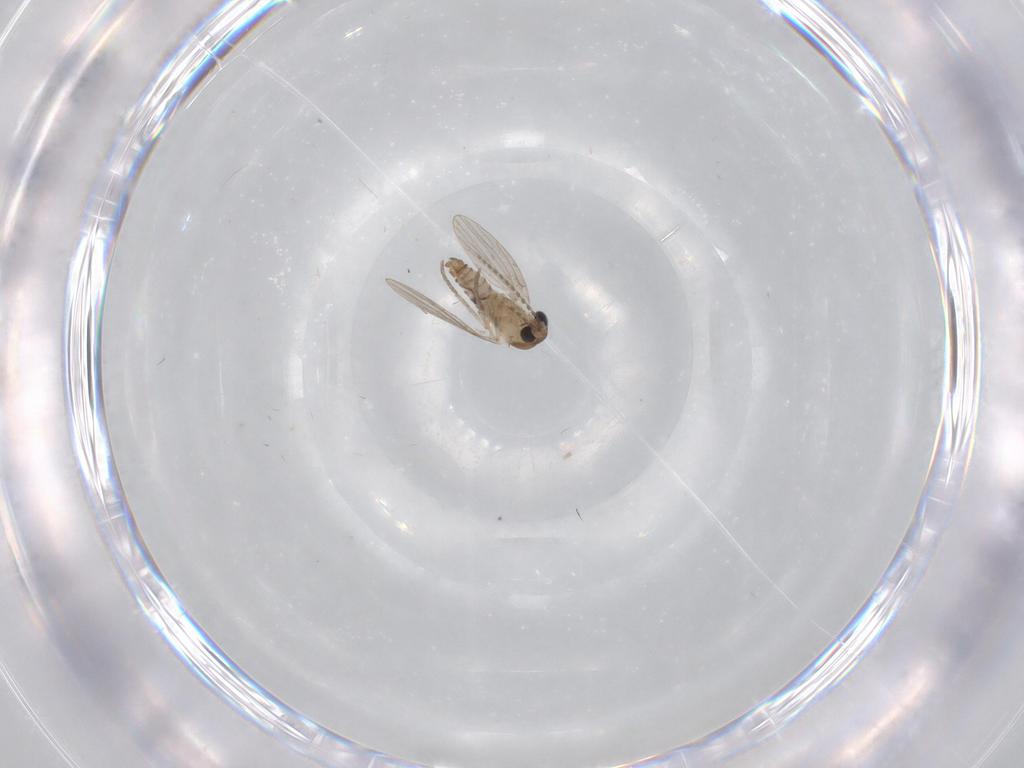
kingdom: Animalia
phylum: Arthropoda
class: Insecta
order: Diptera
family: Psychodidae
